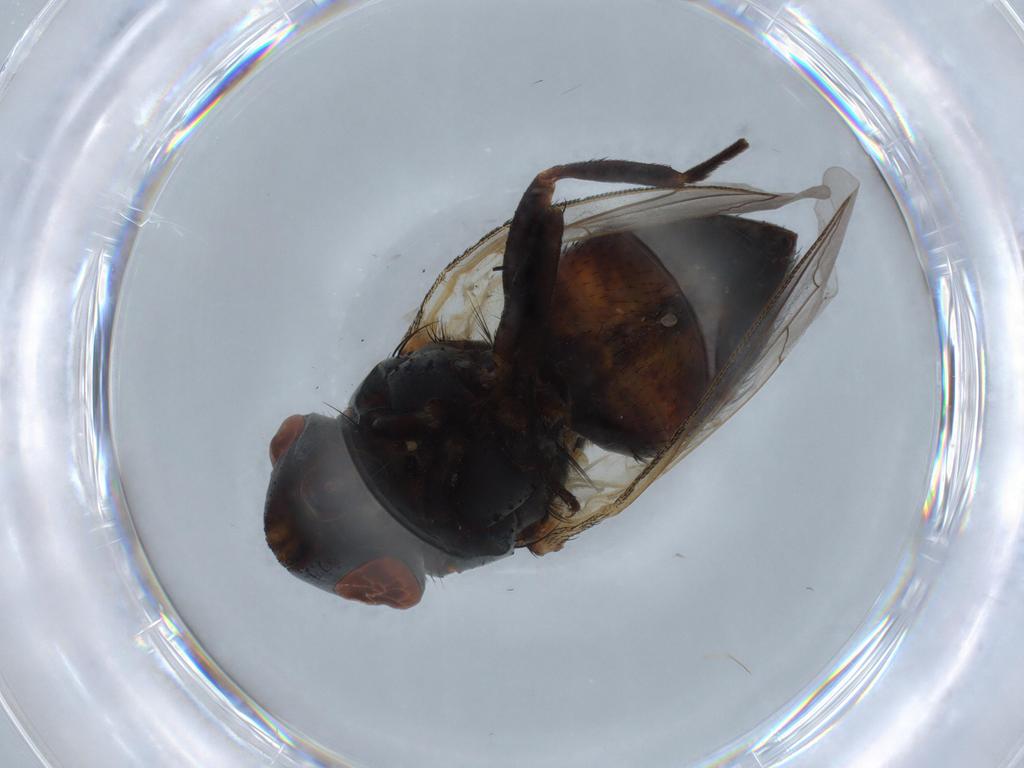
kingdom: Animalia
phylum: Arthropoda
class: Insecta
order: Diptera
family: Sarcophagidae
